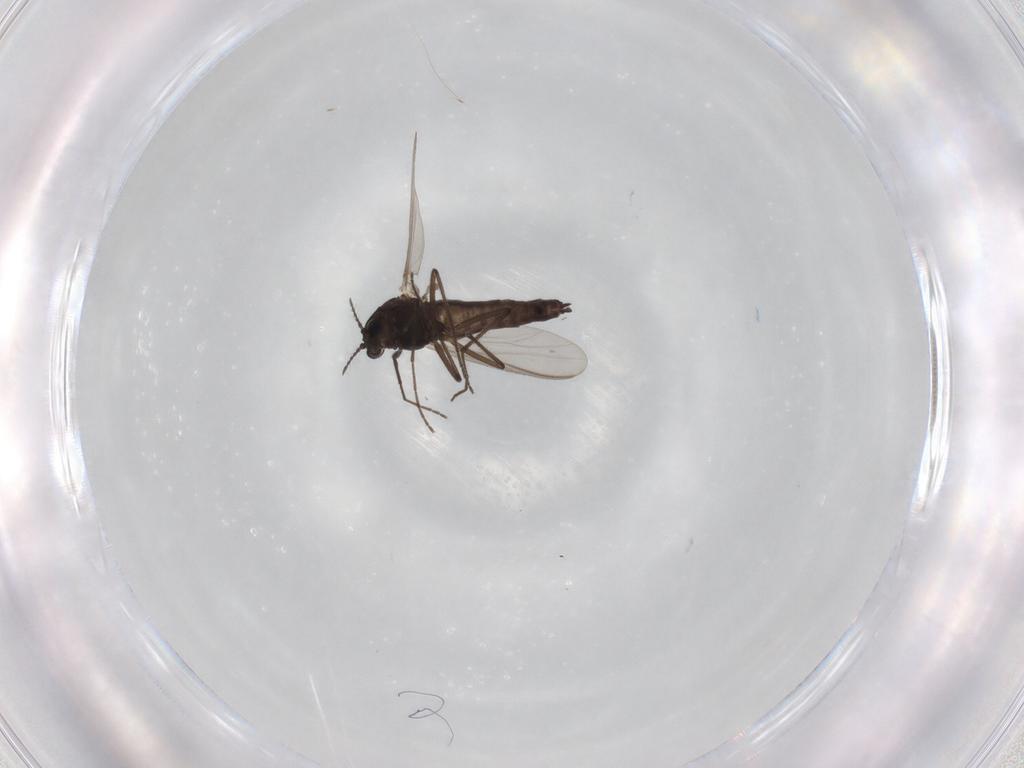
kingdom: Animalia
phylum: Arthropoda
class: Insecta
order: Diptera
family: Chironomidae
